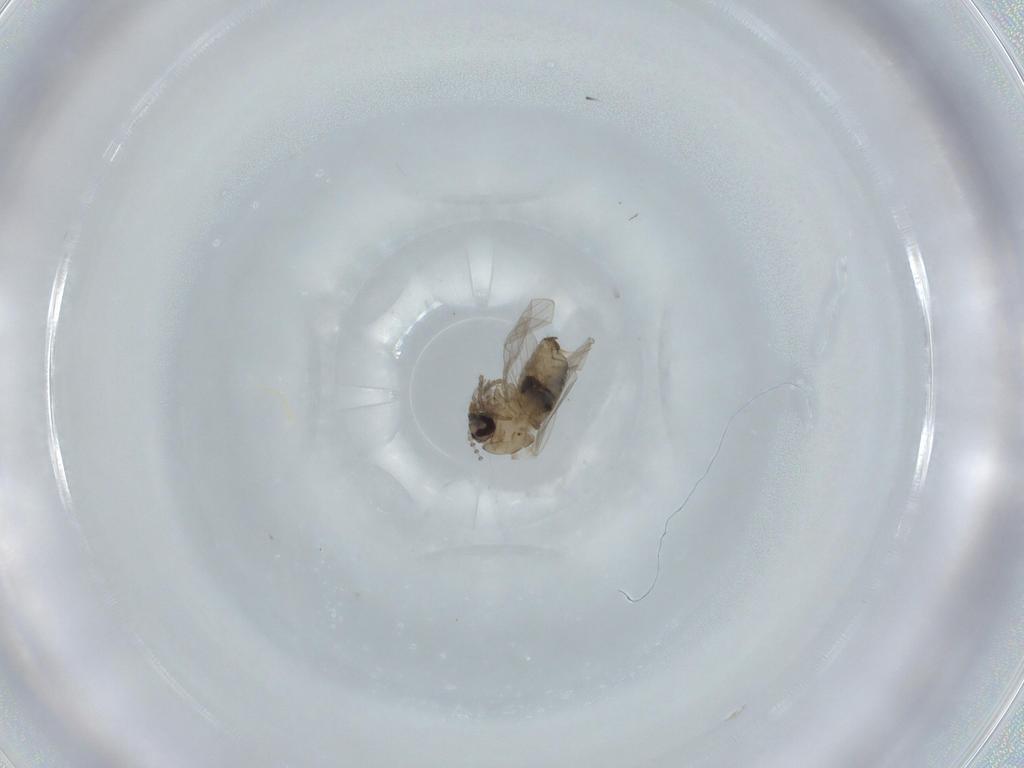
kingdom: Animalia
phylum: Arthropoda
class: Insecta
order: Diptera
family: Psychodidae
